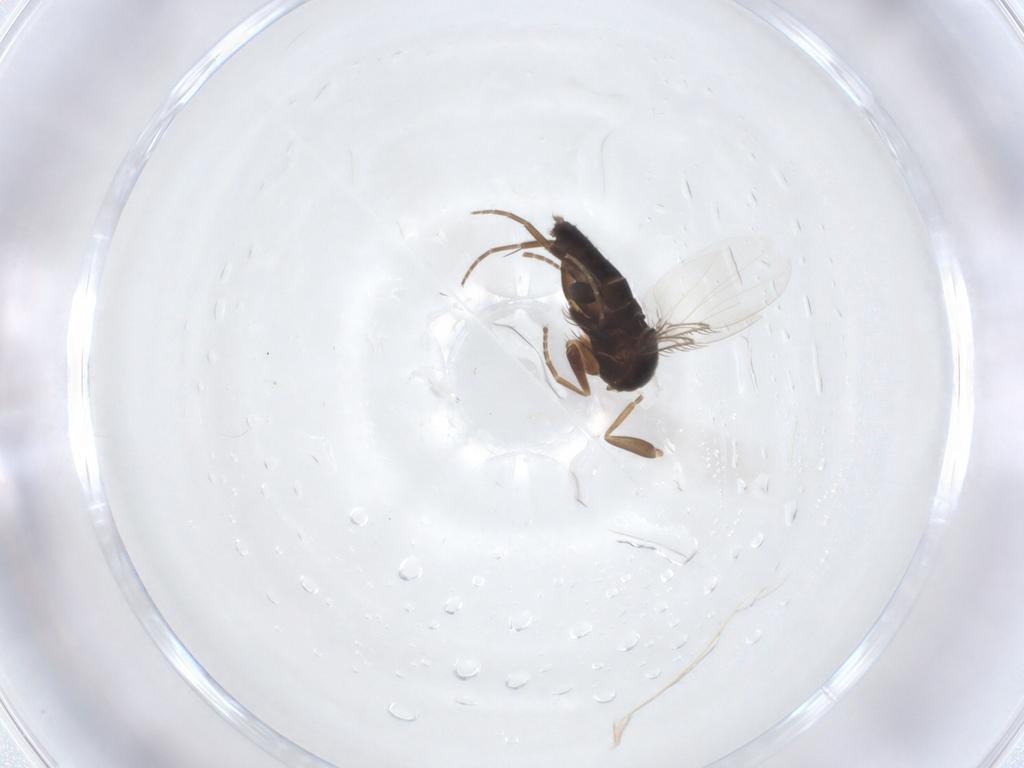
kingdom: Animalia
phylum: Arthropoda
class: Insecta
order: Diptera
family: Phoridae
